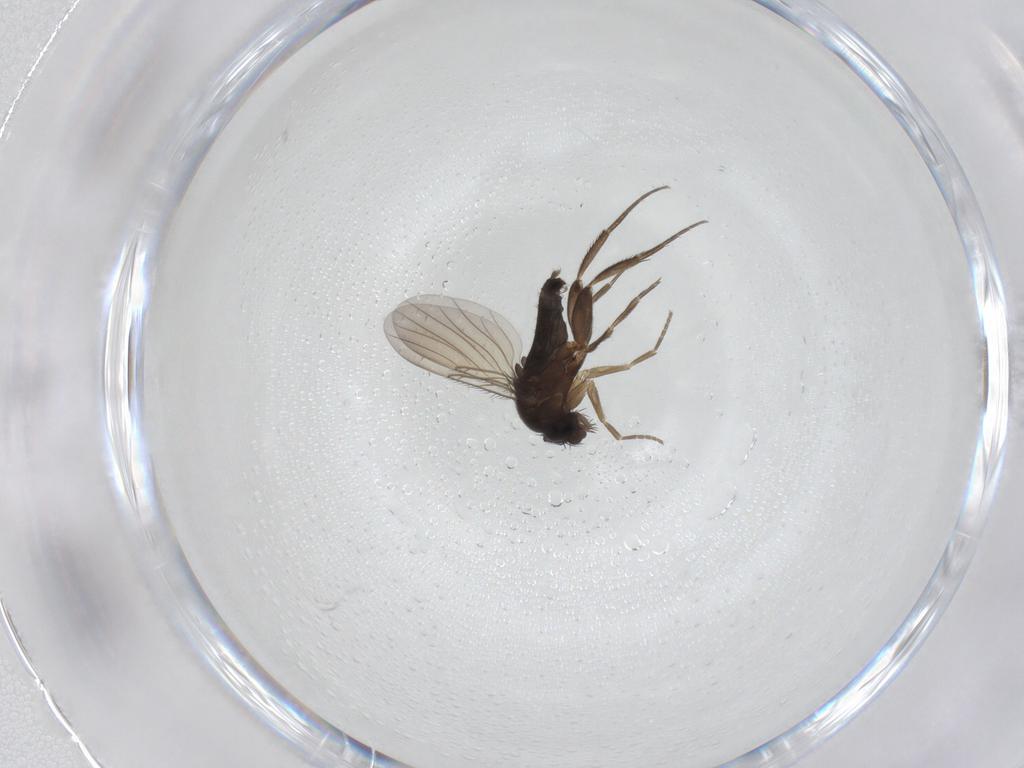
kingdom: Animalia
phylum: Arthropoda
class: Insecta
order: Diptera
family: Phoridae
